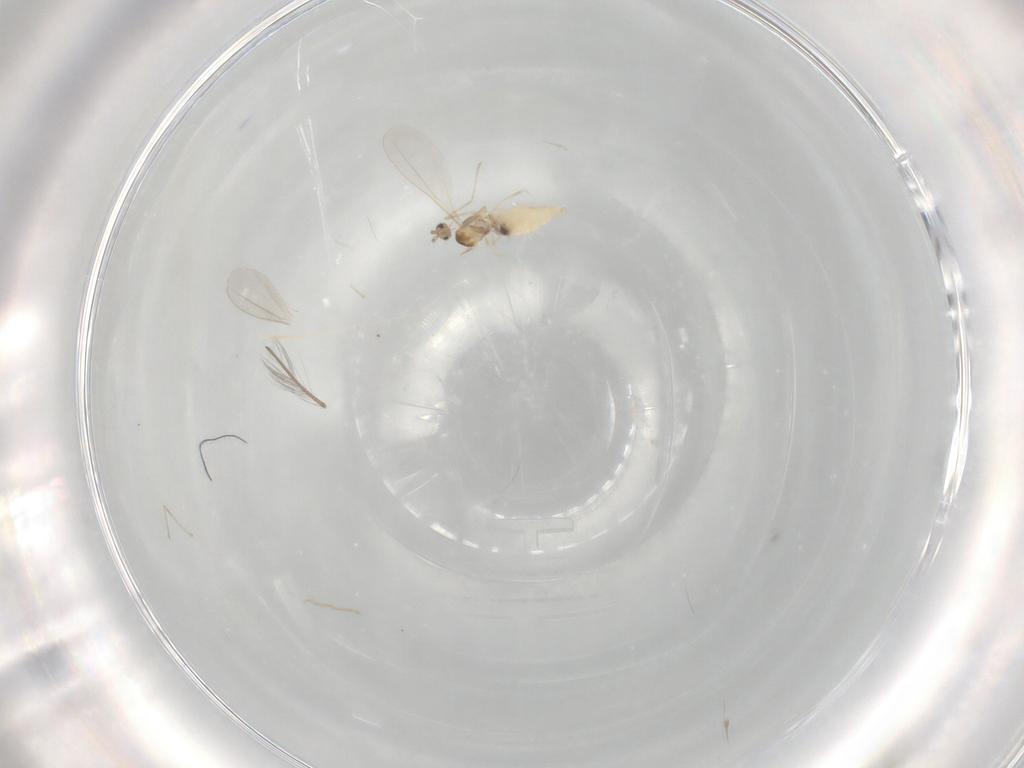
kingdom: Animalia
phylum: Arthropoda
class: Insecta
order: Diptera
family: Cecidomyiidae
